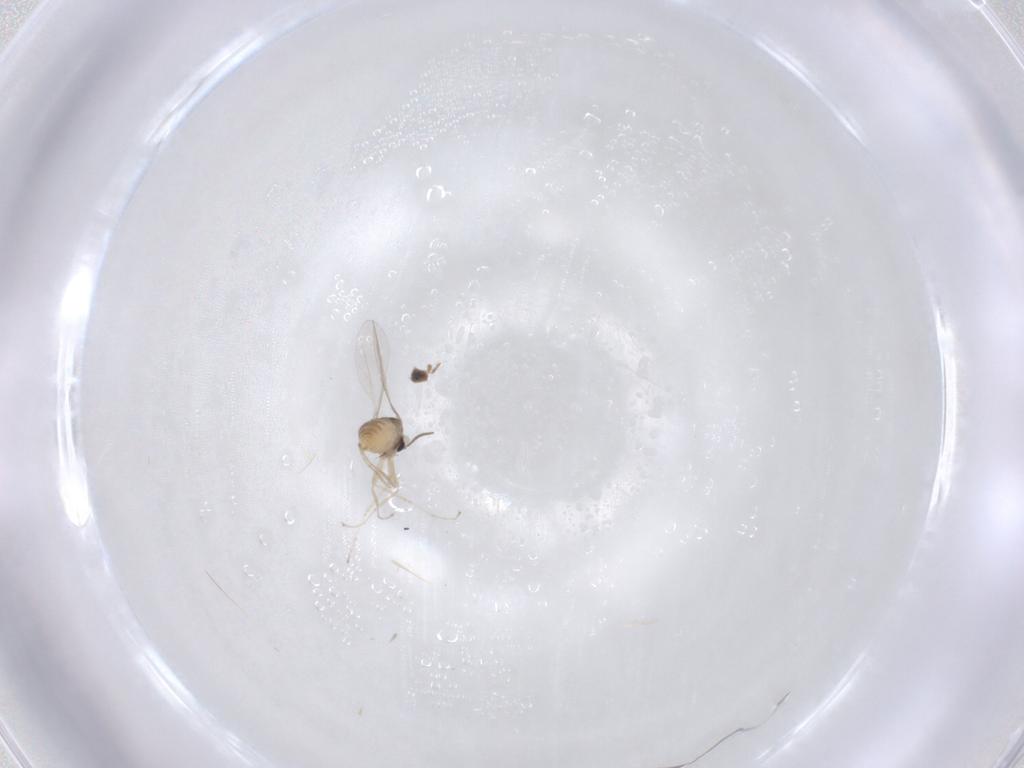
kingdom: Animalia
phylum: Arthropoda
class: Insecta
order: Diptera
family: Cecidomyiidae
